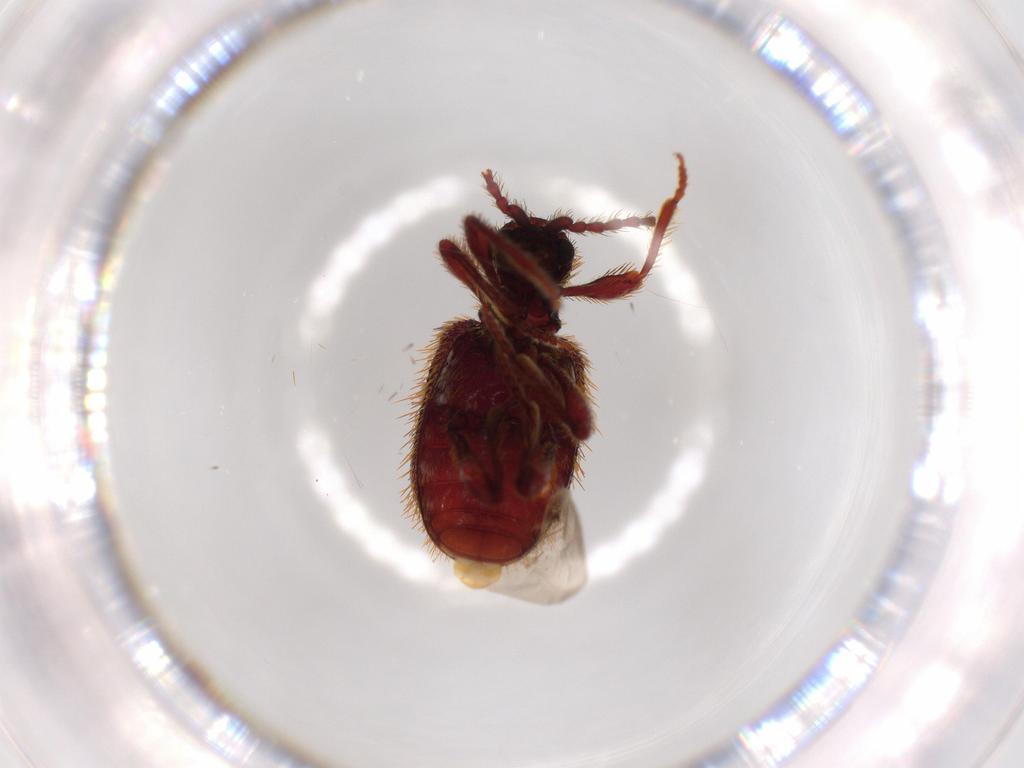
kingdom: Animalia
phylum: Arthropoda
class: Insecta
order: Coleoptera
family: Ptinidae
